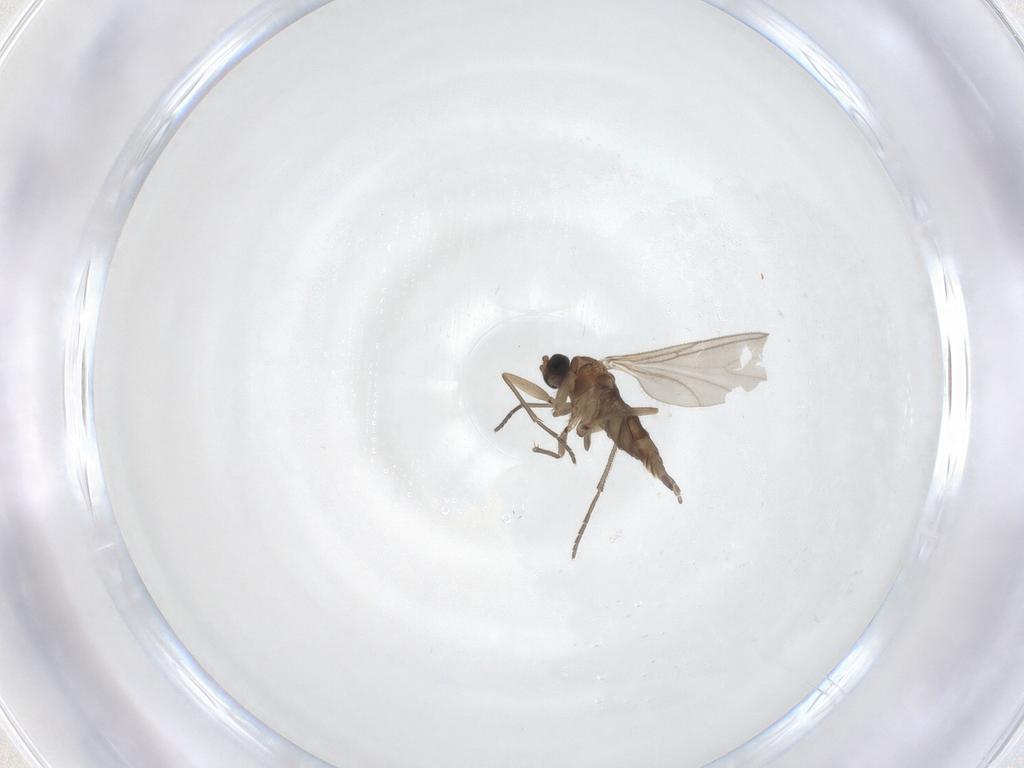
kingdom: Animalia
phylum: Arthropoda
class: Insecta
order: Diptera
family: Sciaridae
